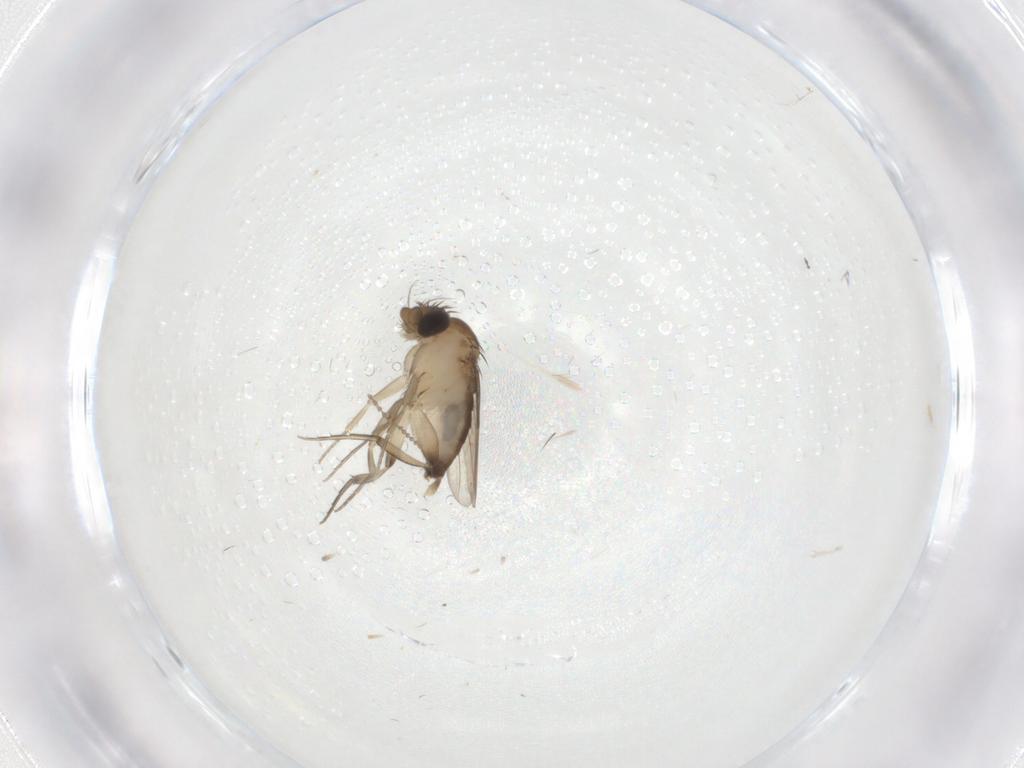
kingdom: Animalia
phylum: Arthropoda
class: Insecta
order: Diptera
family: Phoridae
